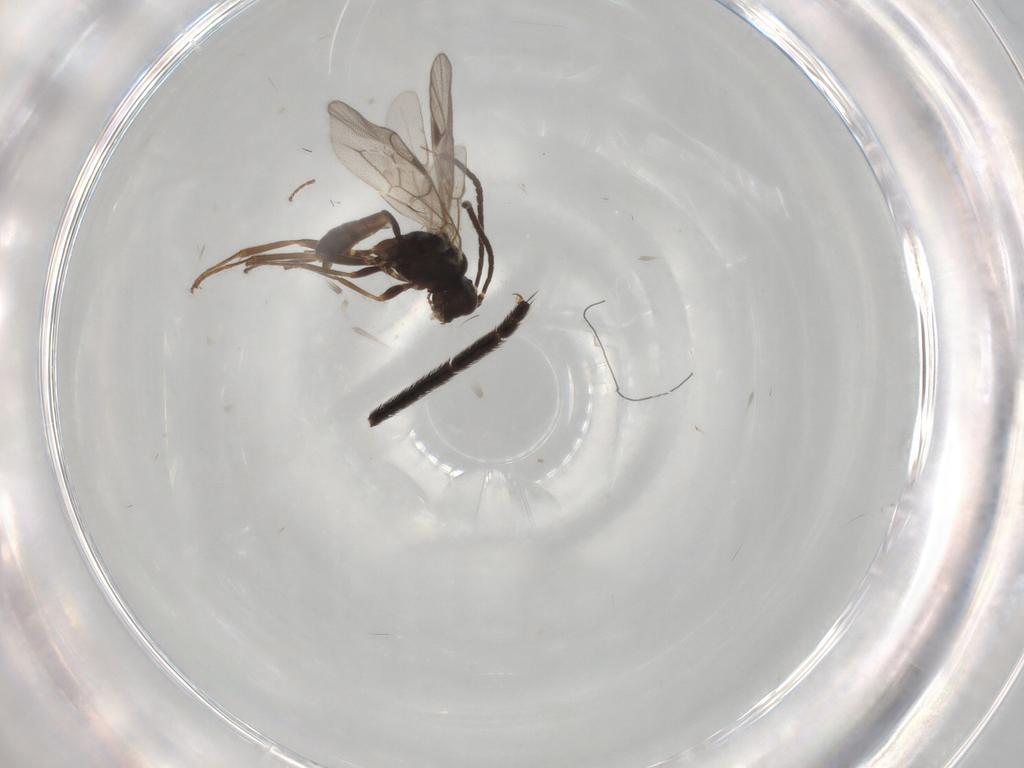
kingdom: Animalia
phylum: Arthropoda
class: Insecta
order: Hymenoptera
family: Ichneumonidae
